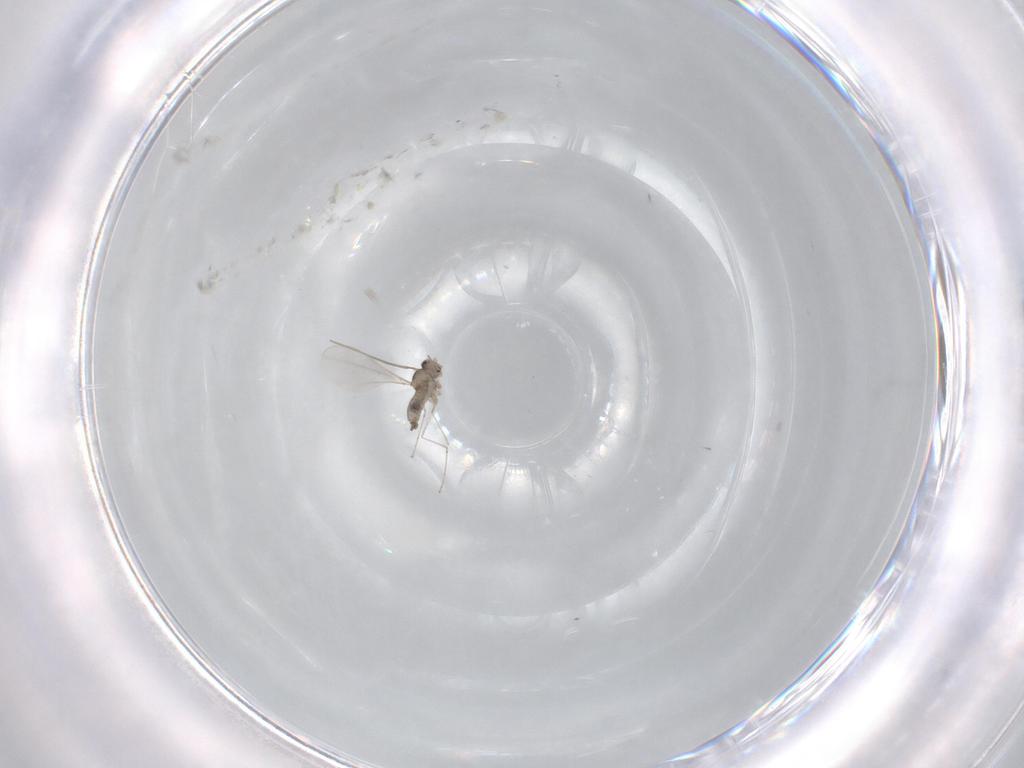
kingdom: Animalia
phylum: Arthropoda
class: Insecta
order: Diptera
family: Cecidomyiidae
